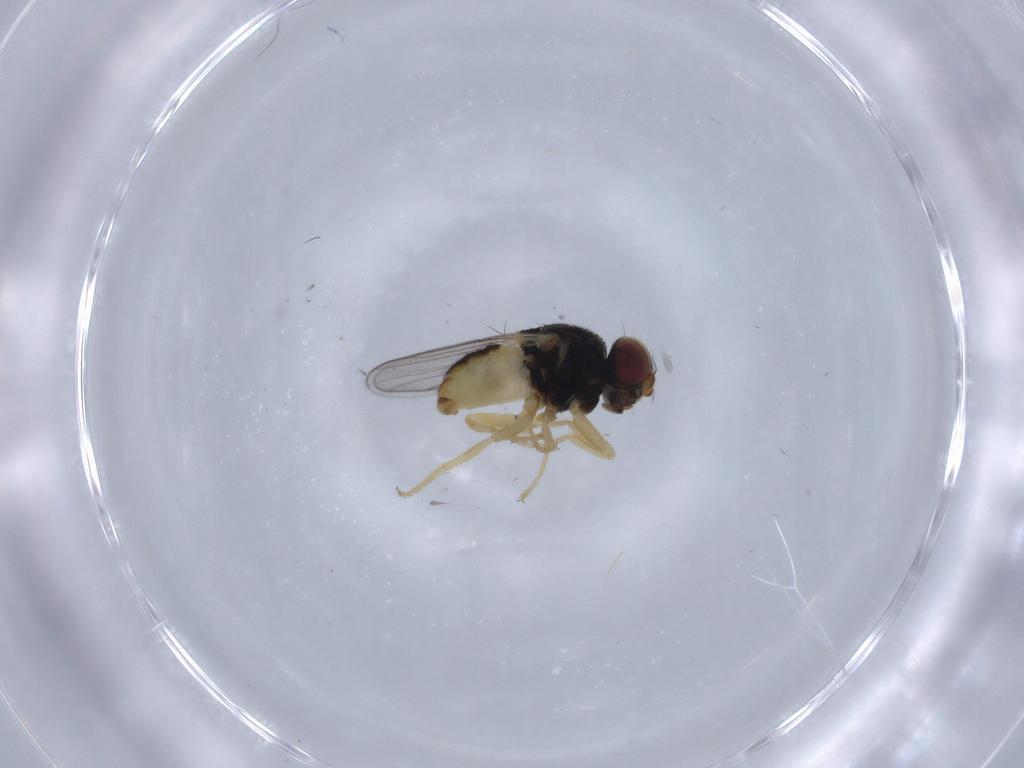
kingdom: Animalia
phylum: Arthropoda
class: Insecta
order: Diptera
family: Chloropidae
